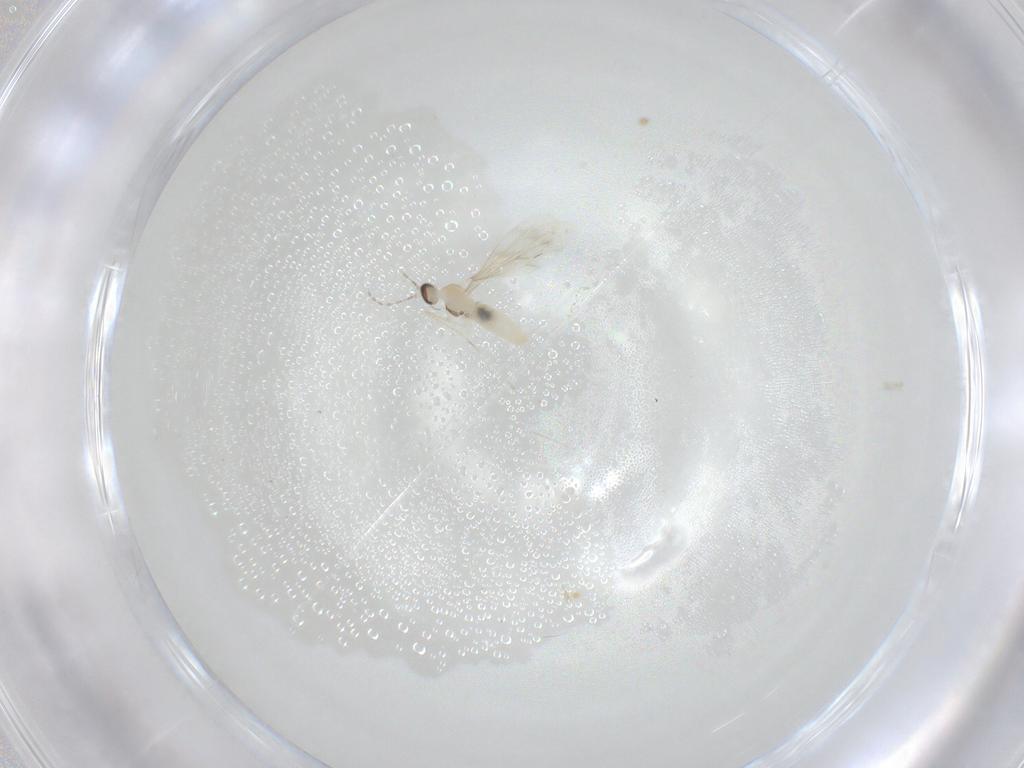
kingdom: Animalia
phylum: Arthropoda
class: Insecta
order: Diptera
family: Cecidomyiidae
